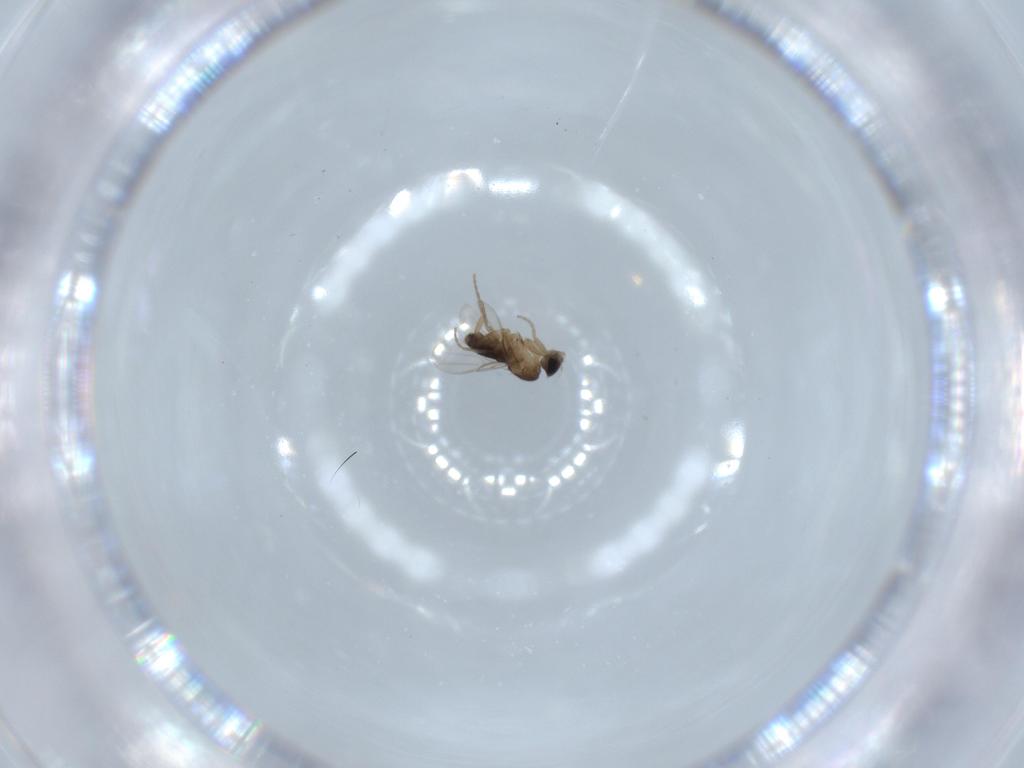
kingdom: Animalia
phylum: Arthropoda
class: Insecta
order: Diptera
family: Phoridae
